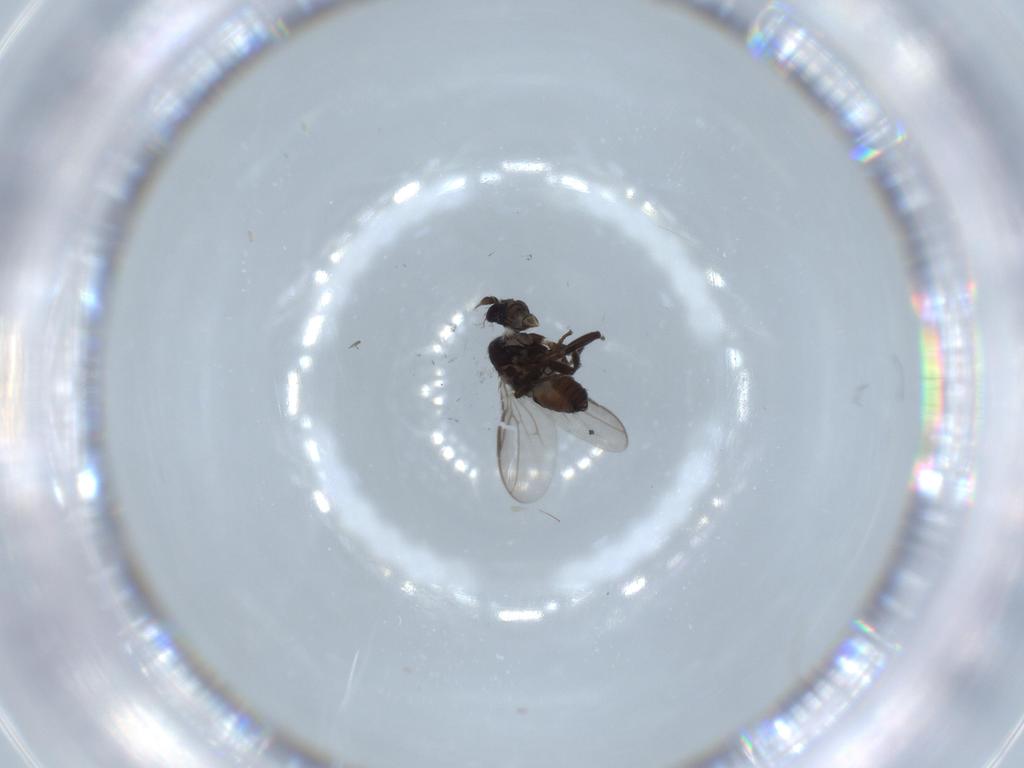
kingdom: Animalia
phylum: Arthropoda
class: Insecta
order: Diptera
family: Sphaeroceridae
